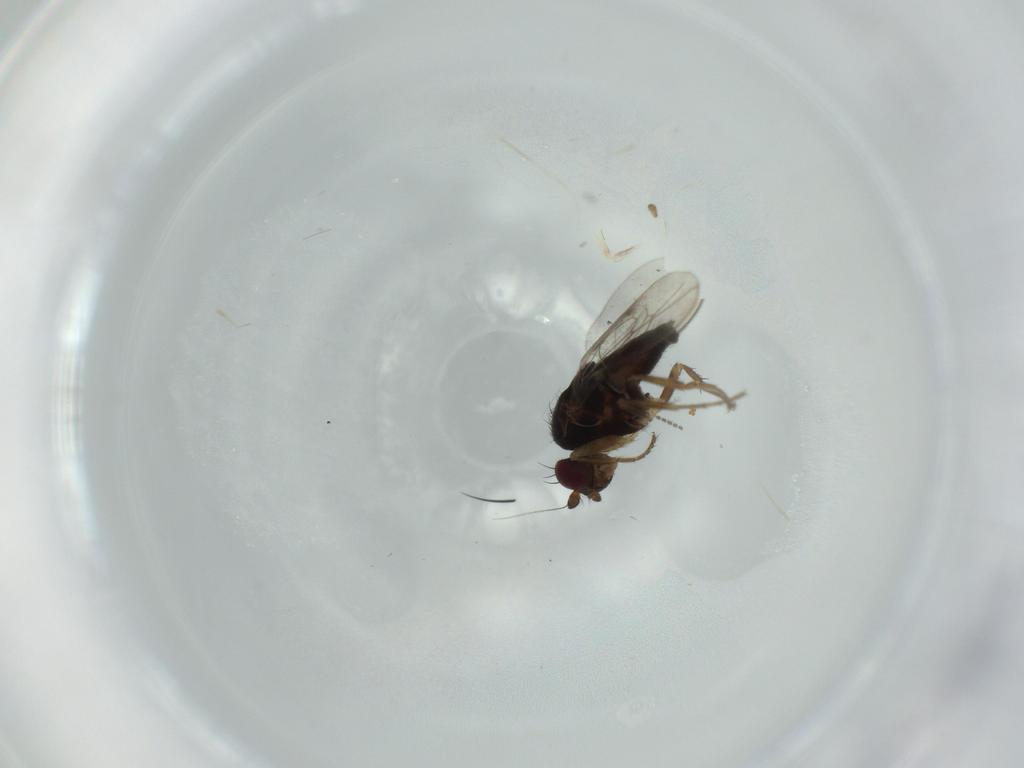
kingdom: Animalia
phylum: Arthropoda
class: Insecta
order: Diptera
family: Sphaeroceridae
